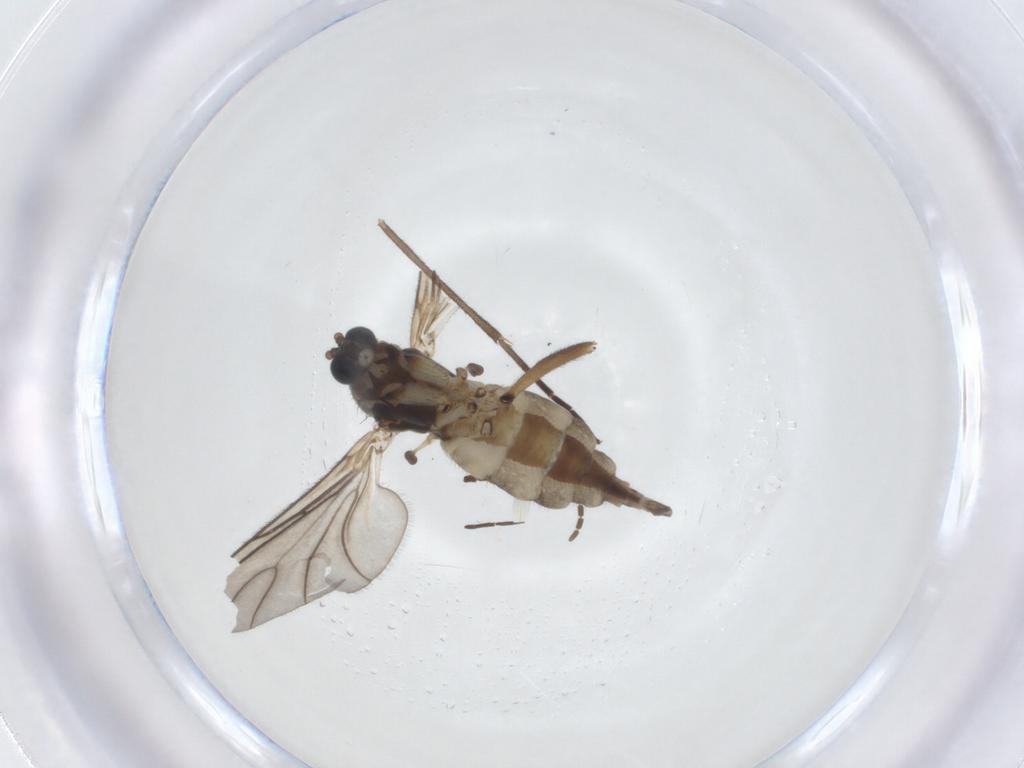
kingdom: Animalia
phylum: Arthropoda
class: Insecta
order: Diptera
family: Sciaridae
